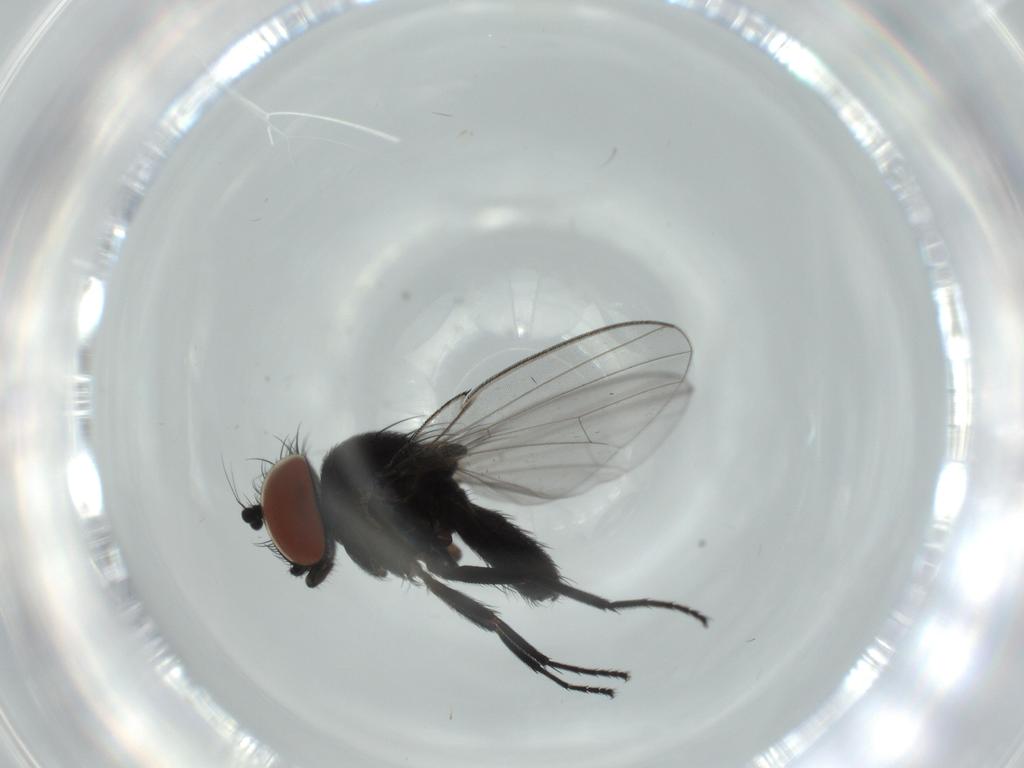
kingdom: Animalia
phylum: Arthropoda
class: Insecta
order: Diptera
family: Milichiidae
